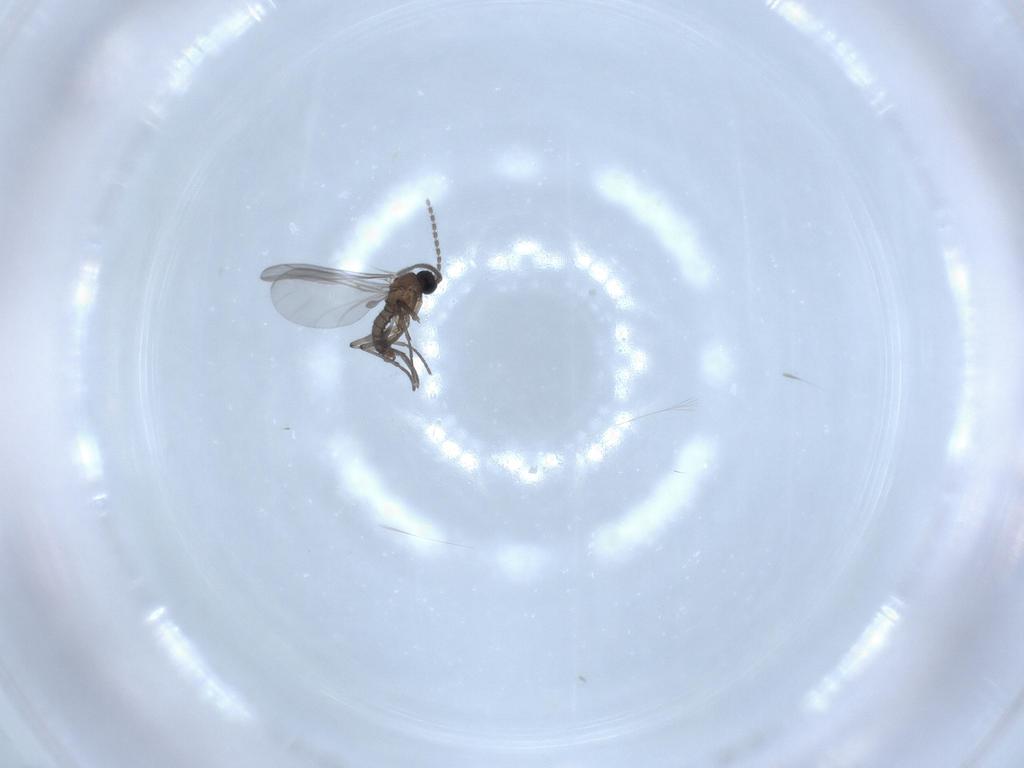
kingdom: Animalia
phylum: Arthropoda
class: Insecta
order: Diptera
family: Sciaridae
